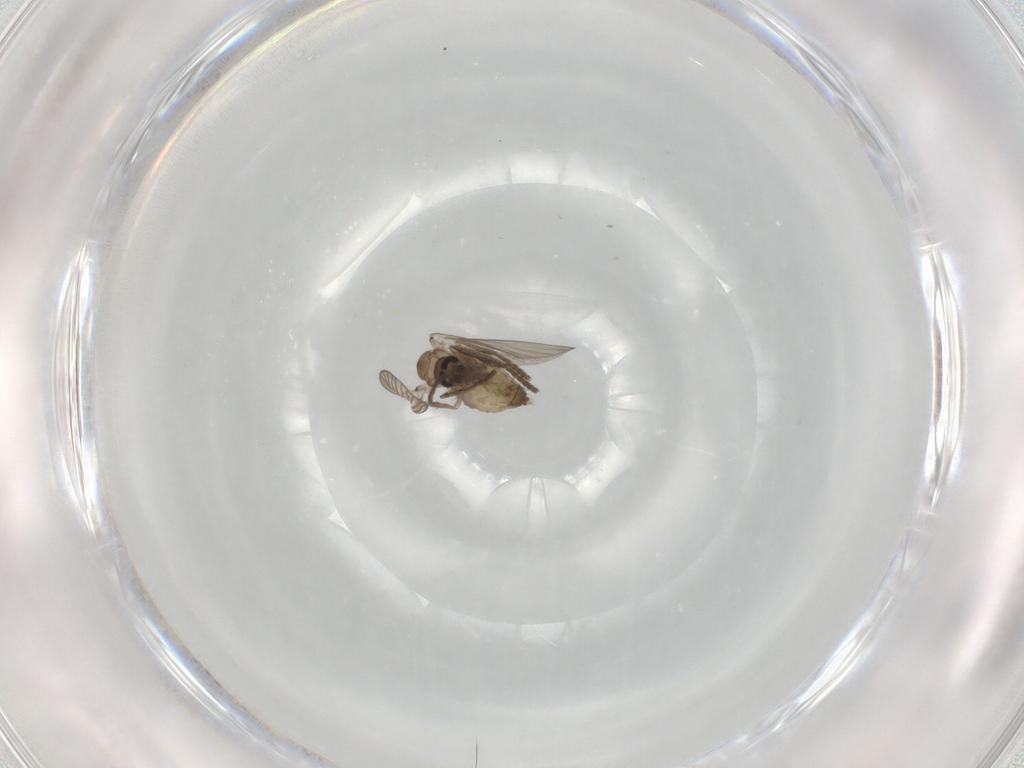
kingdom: Animalia
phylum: Arthropoda
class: Insecta
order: Diptera
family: Psychodidae
